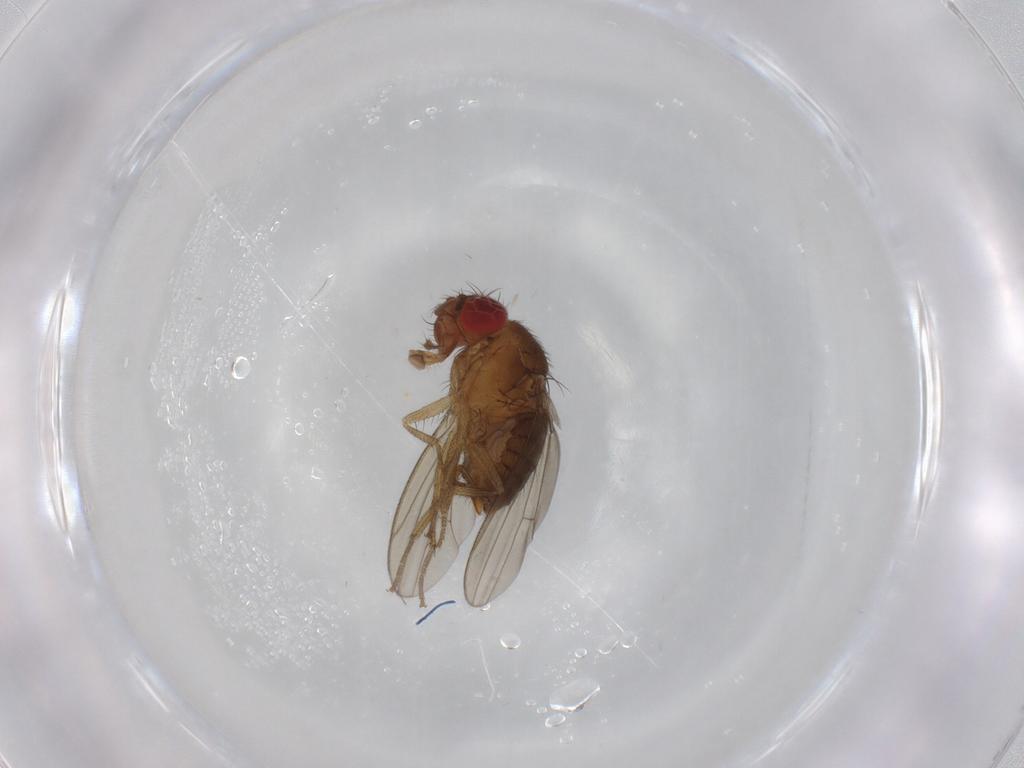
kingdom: Animalia
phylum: Arthropoda
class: Insecta
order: Diptera
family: Drosophilidae
